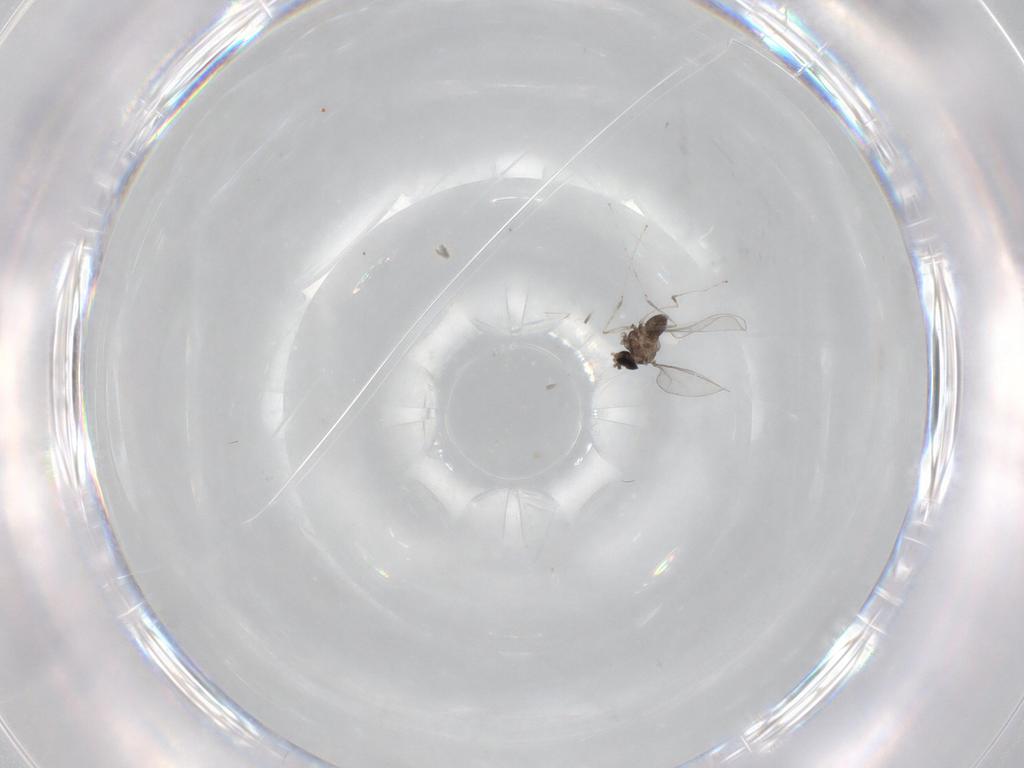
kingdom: Animalia
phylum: Arthropoda
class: Insecta
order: Diptera
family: Cecidomyiidae
